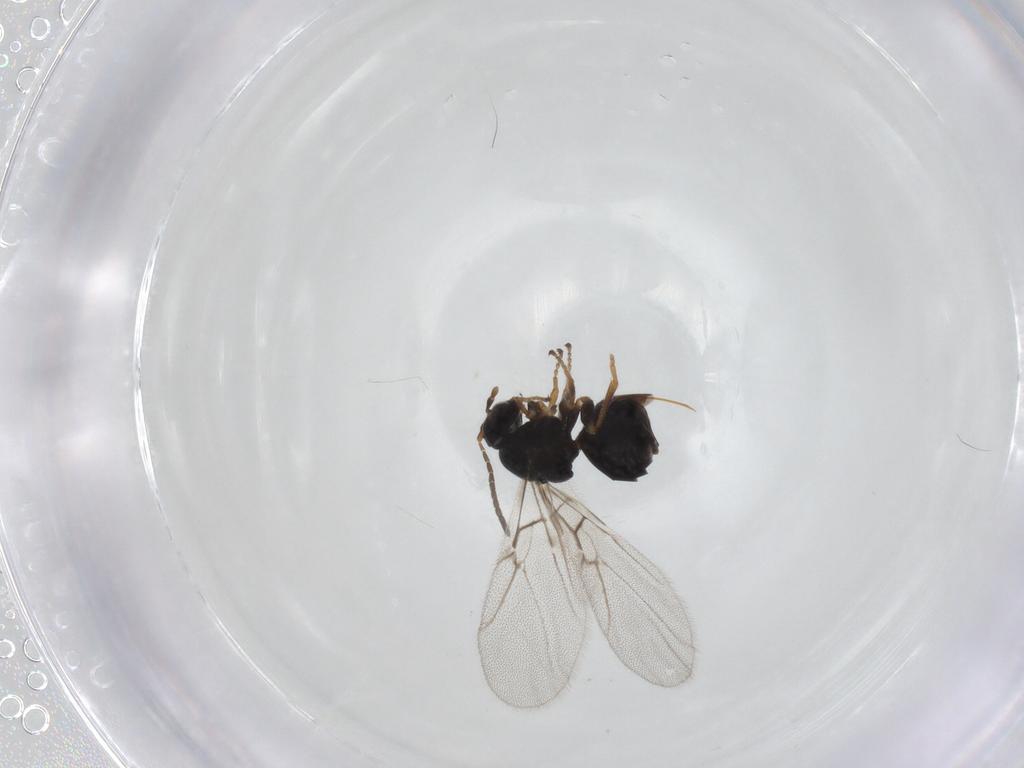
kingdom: Animalia
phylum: Arthropoda
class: Insecta
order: Hymenoptera
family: Cynipidae
